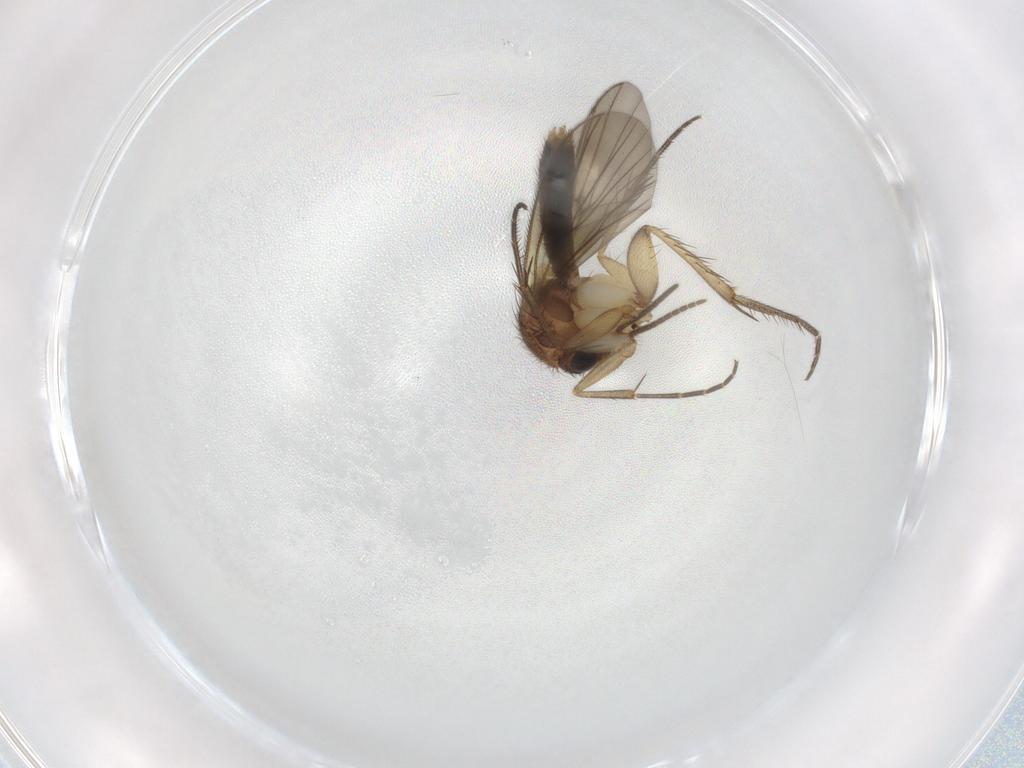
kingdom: Animalia
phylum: Arthropoda
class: Insecta
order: Diptera
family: Mycetophilidae
